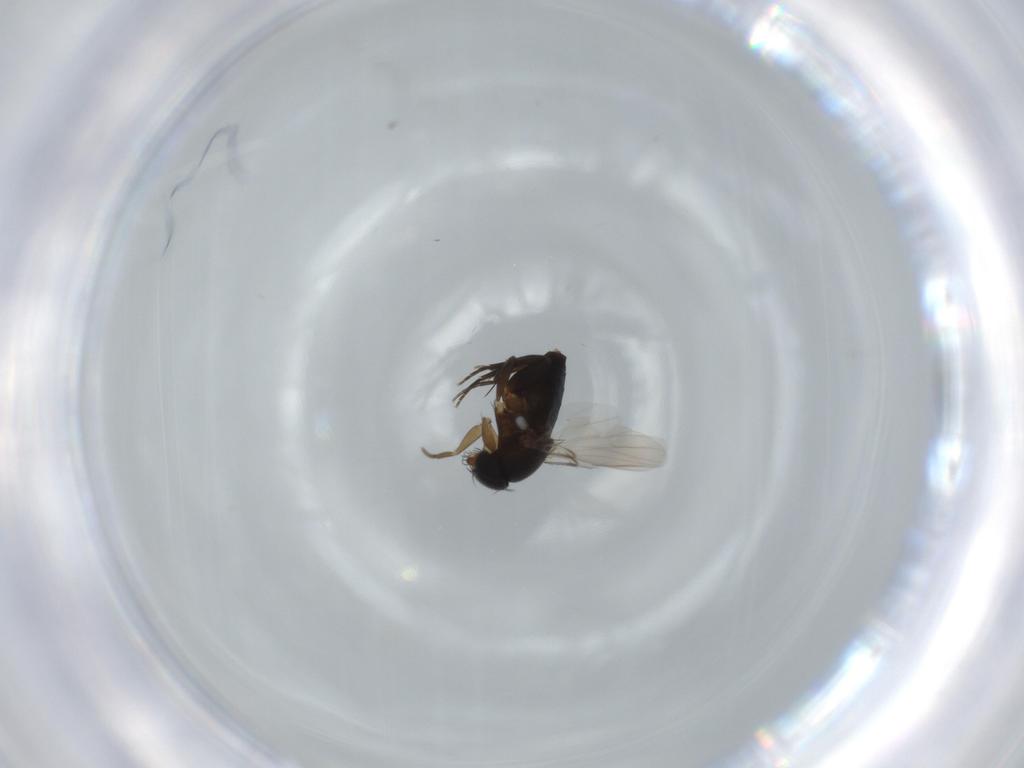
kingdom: Animalia
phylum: Arthropoda
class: Insecta
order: Diptera
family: Phoridae
